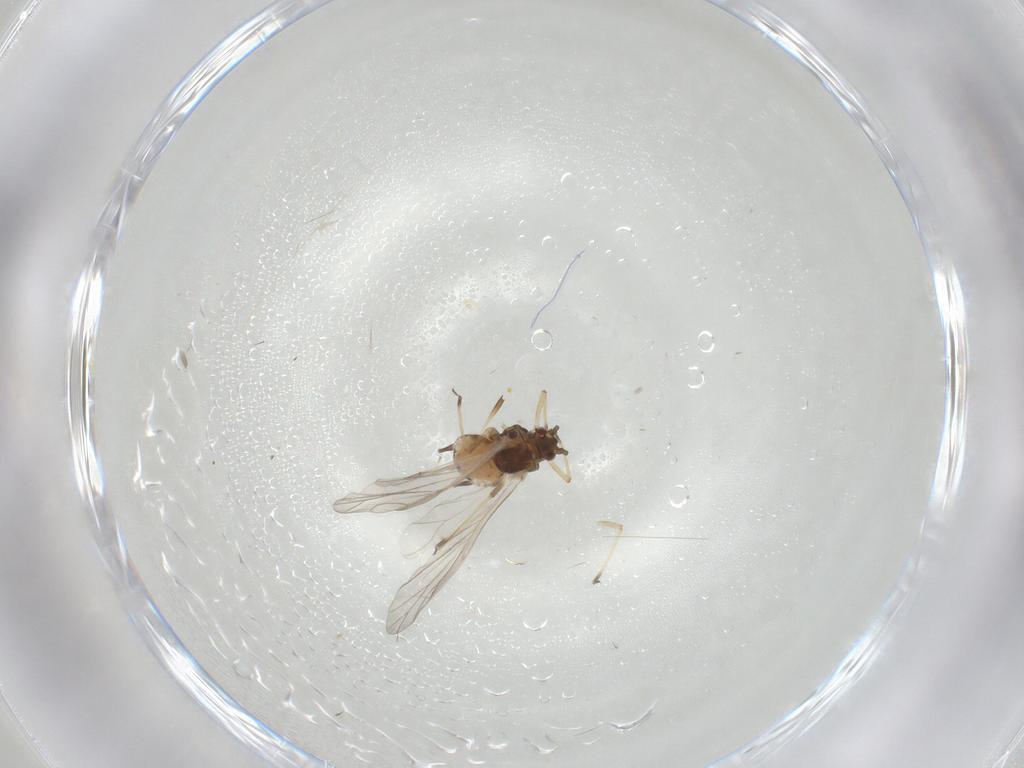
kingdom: Animalia
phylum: Arthropoda
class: Insecta
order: Hemiptera
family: Aphididae
